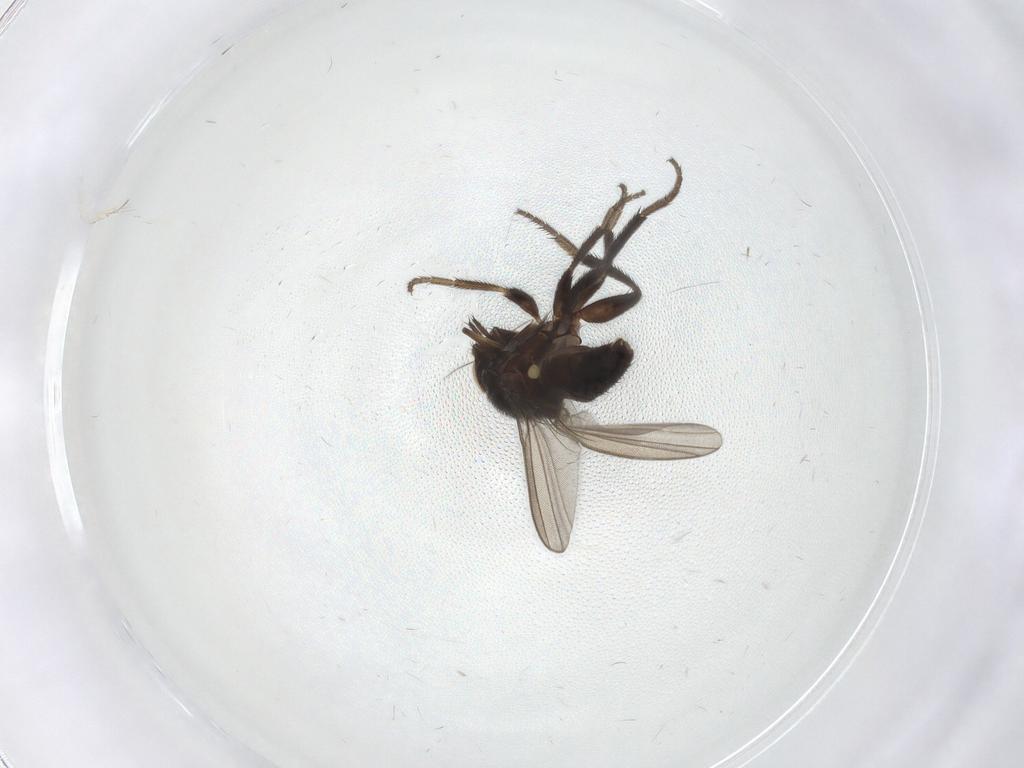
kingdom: Animalia
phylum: Arthropoda
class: Insecta
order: Diptera
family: Milichiidae
